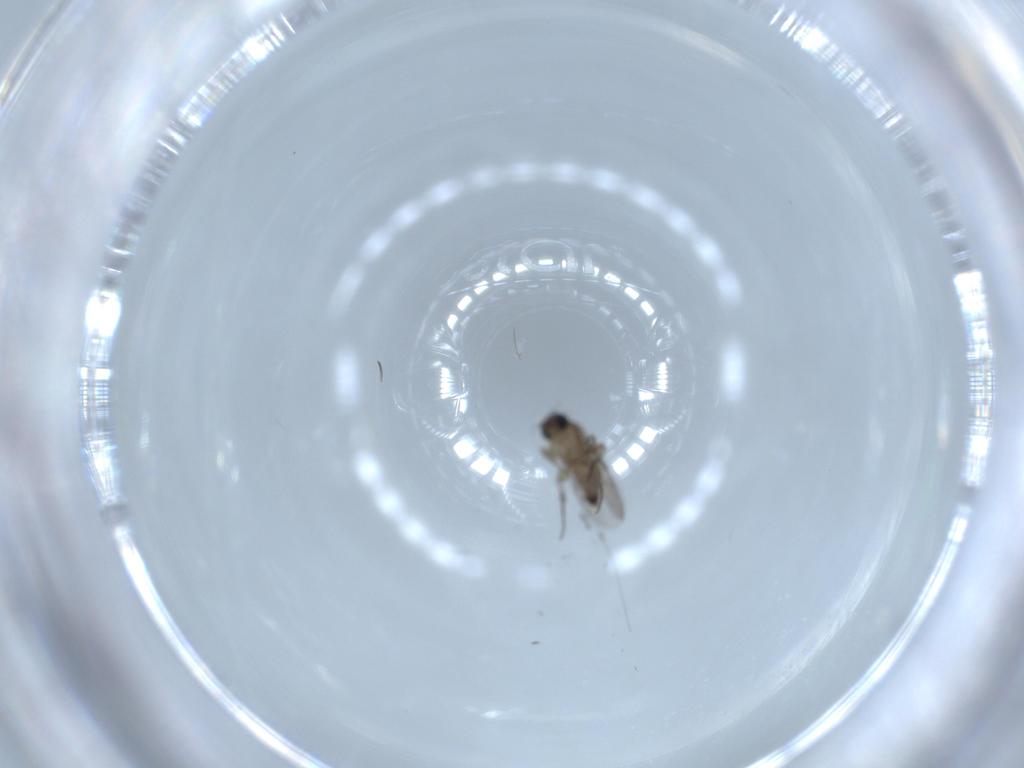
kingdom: Animalia
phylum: Arthropoda
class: Insecta
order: Diptera
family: Phoridae
